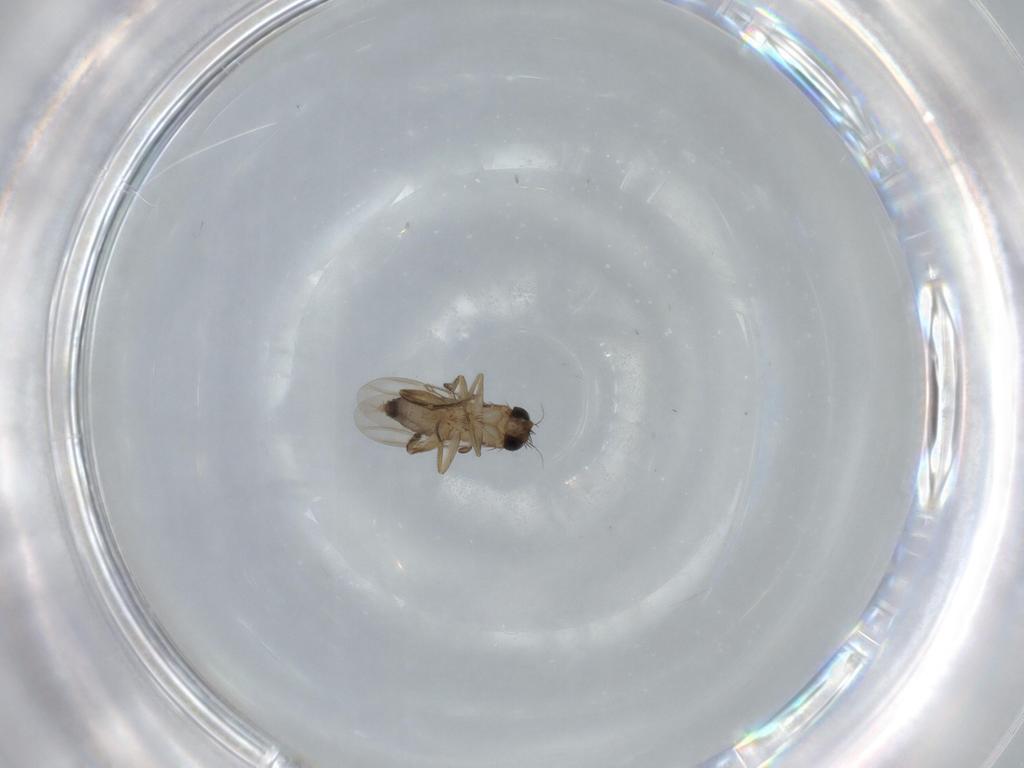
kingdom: Animalia
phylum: Arthropoda
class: Insecta
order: Diptera
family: Phoridae
